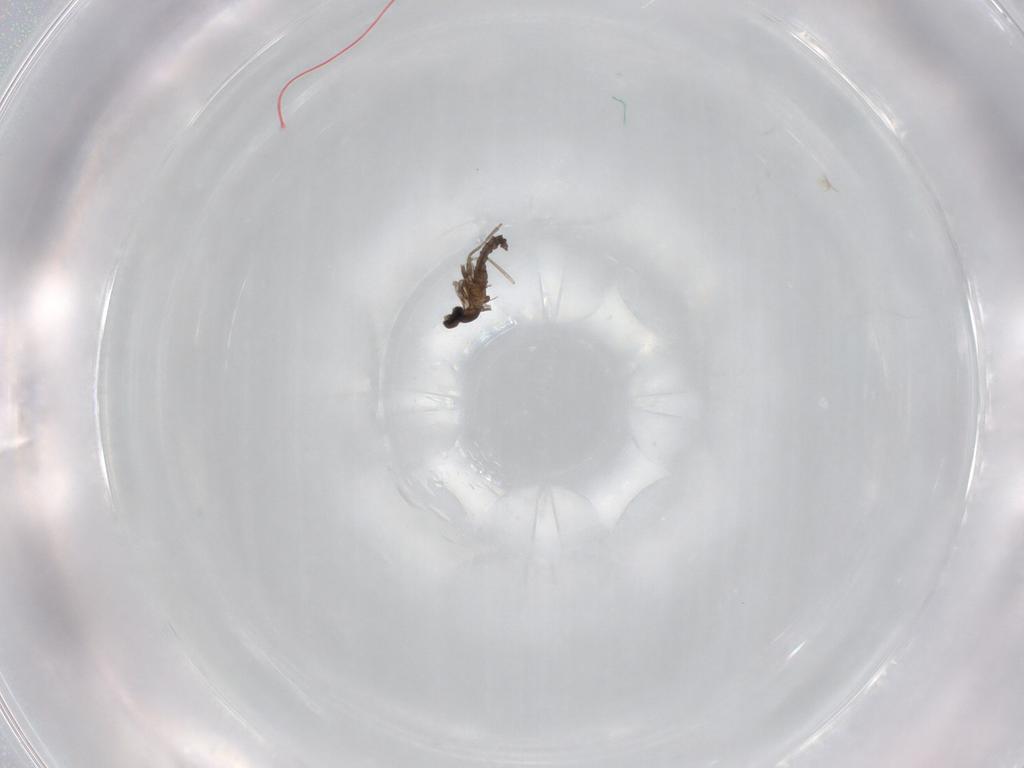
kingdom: Animalia
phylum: Arthropoda
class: Insecta
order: Diptera
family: Cecidomyiidae
